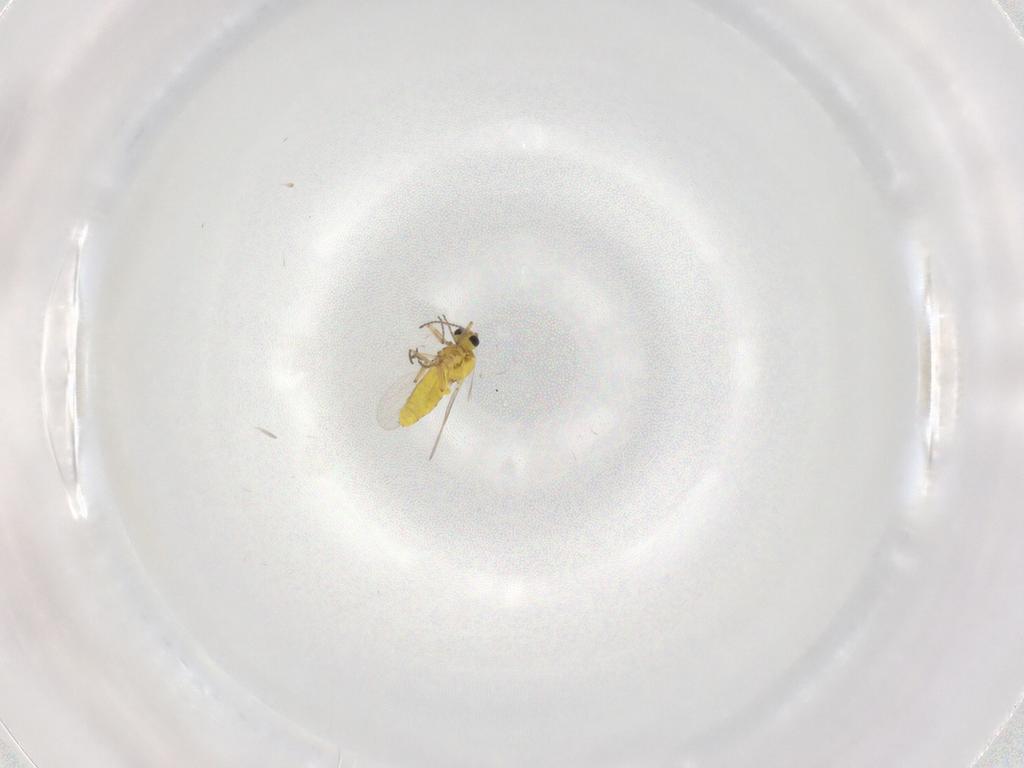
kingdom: Animalia
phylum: Arthropoda
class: Insecta
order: Diptera
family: Ceratopogonidae
